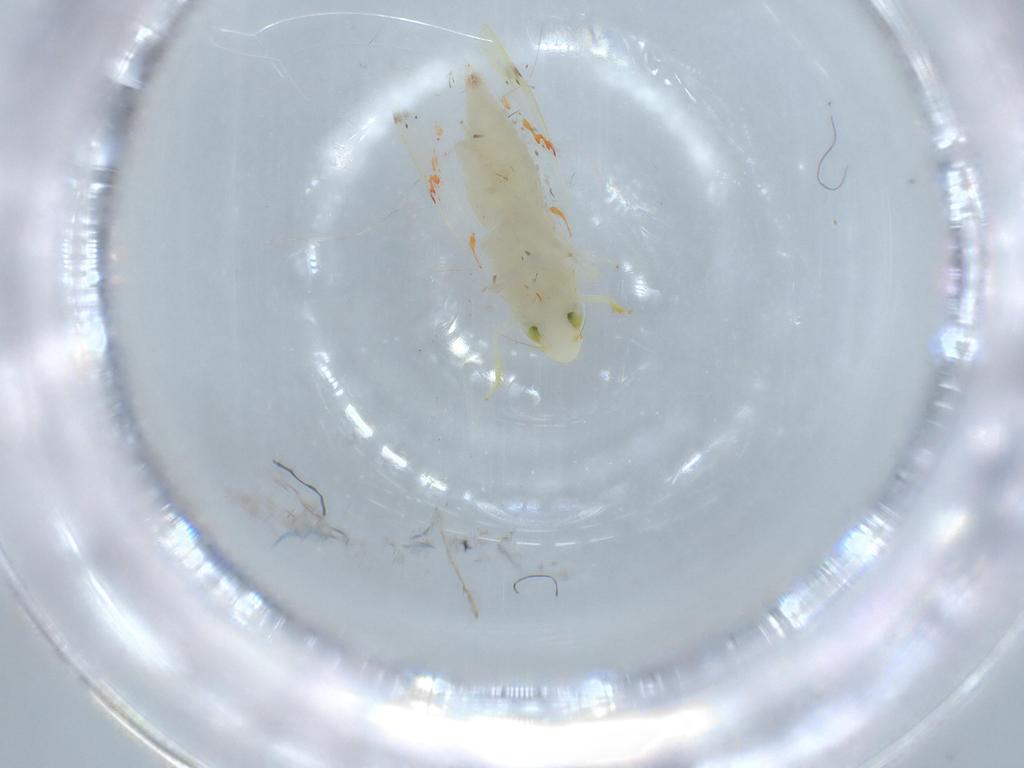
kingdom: Animalia
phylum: Arthropoda
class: Insecta
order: Hemiptera
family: Cicadellidae
